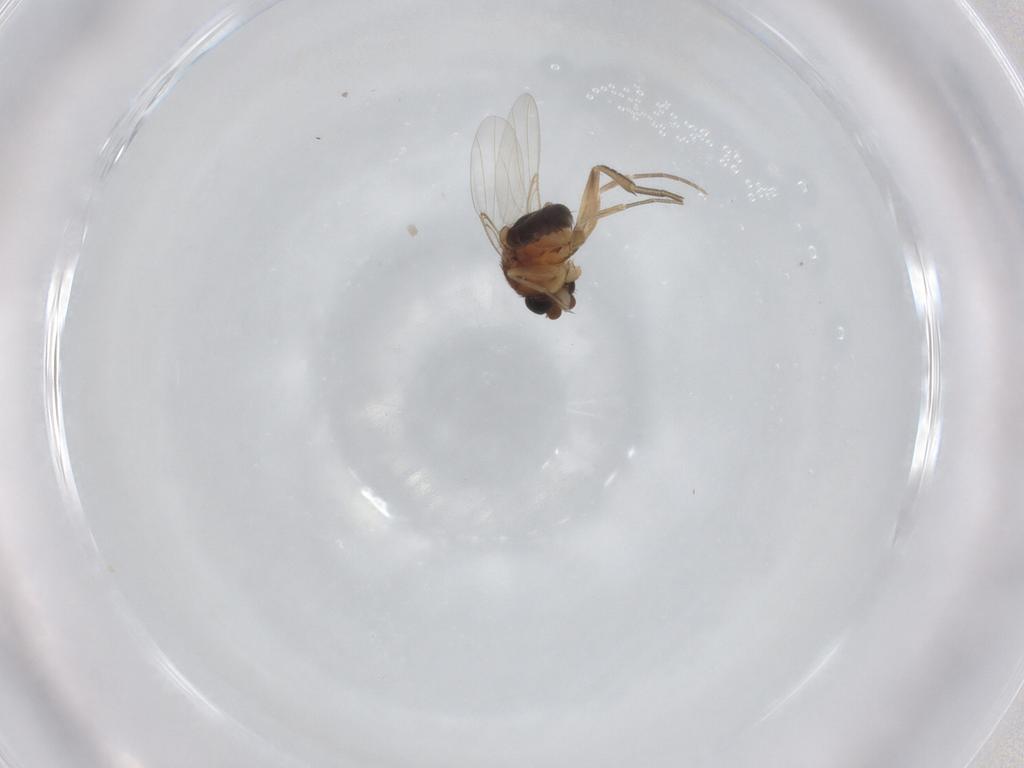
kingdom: Animalia
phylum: Arthropoda
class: Insecta
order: Diptera
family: Phoridae
